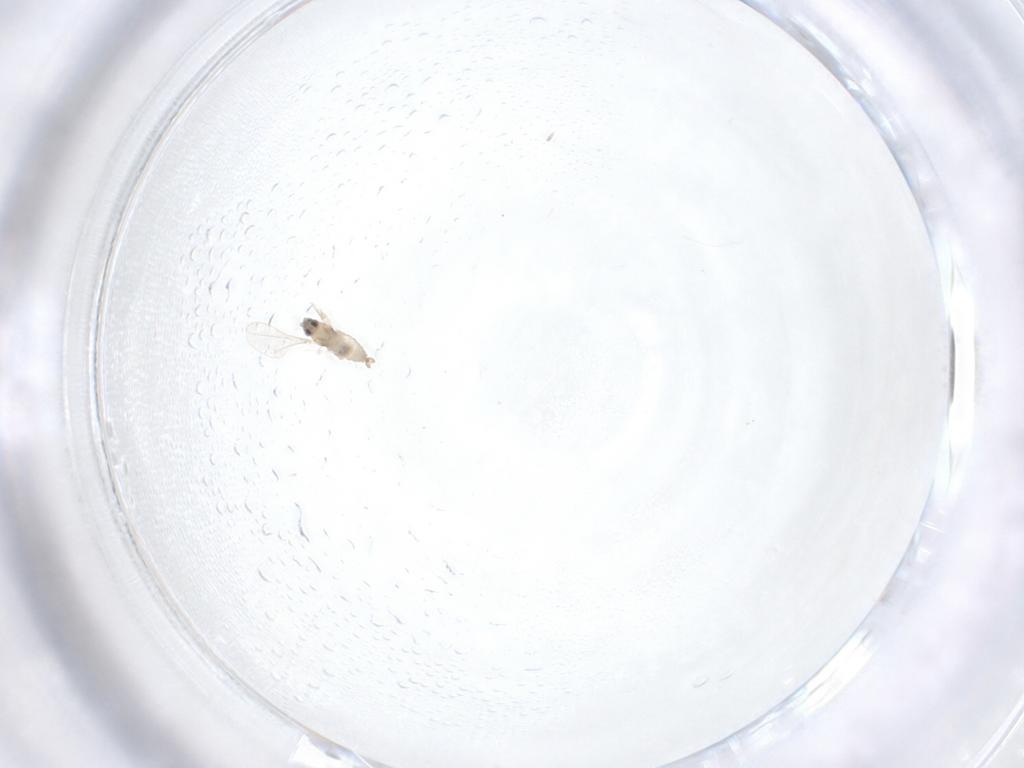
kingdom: Animalia
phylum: Arthropoda
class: Insecta
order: Diptera
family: Cecidomyiidae
